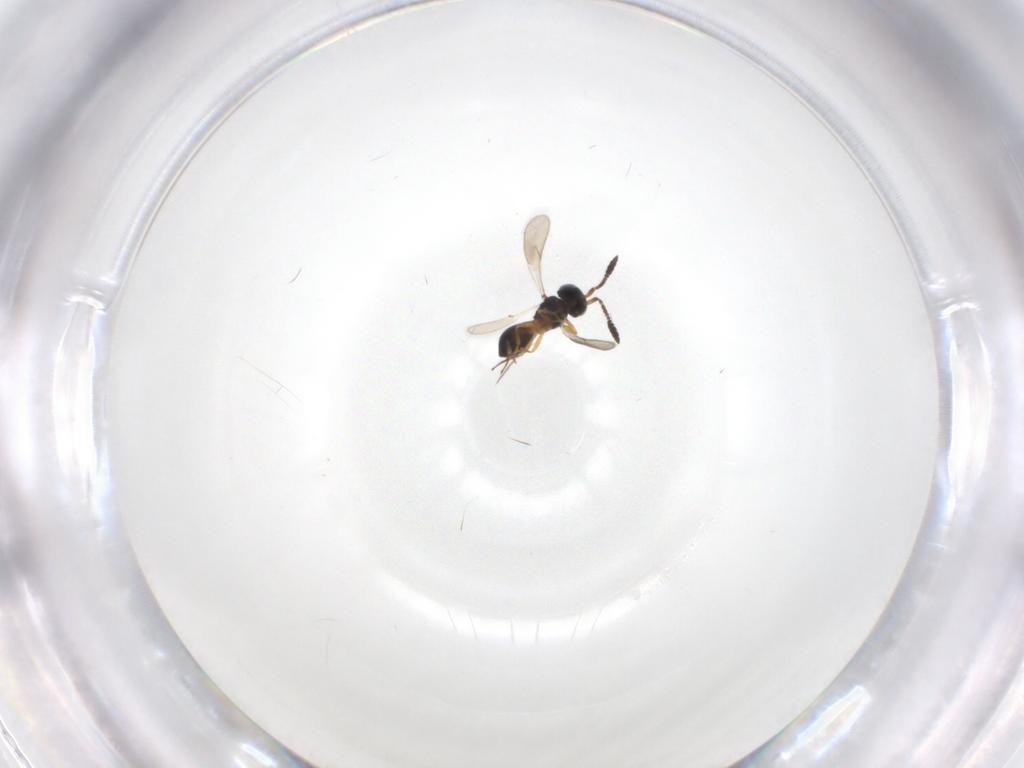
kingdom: Animalia
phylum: Arthropoda
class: Insecta
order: Hymenoptera
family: Scelionidae
